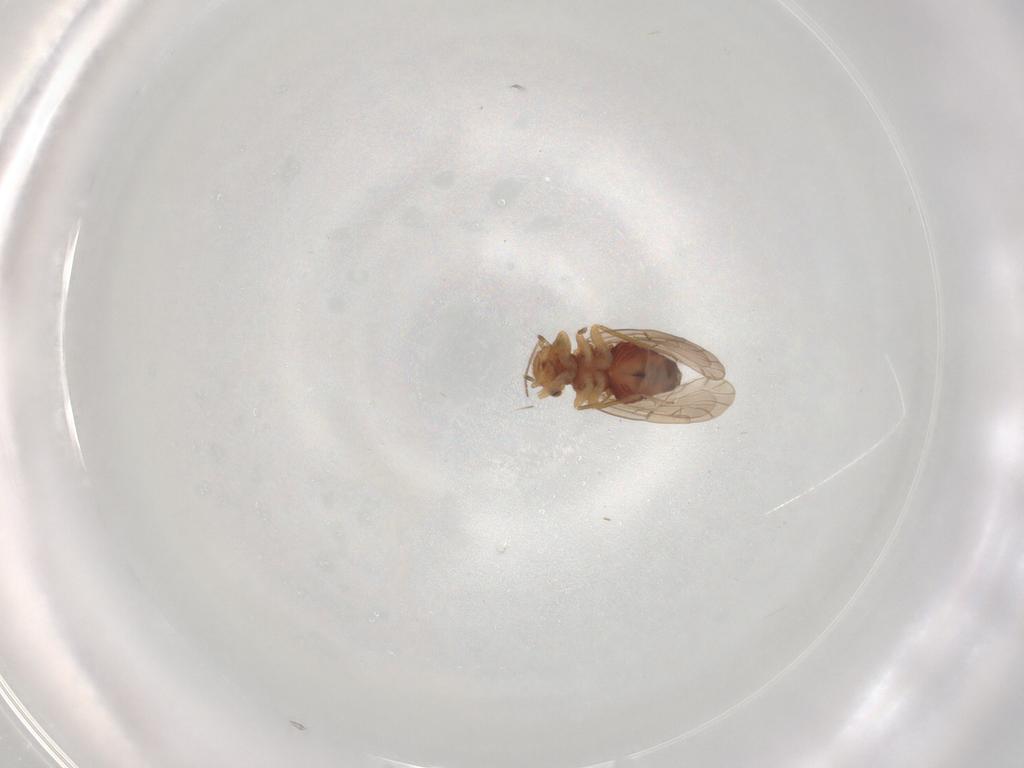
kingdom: Animalia
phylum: Arthropoda
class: Insecta
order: Psocodea
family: Ectopsocidae
